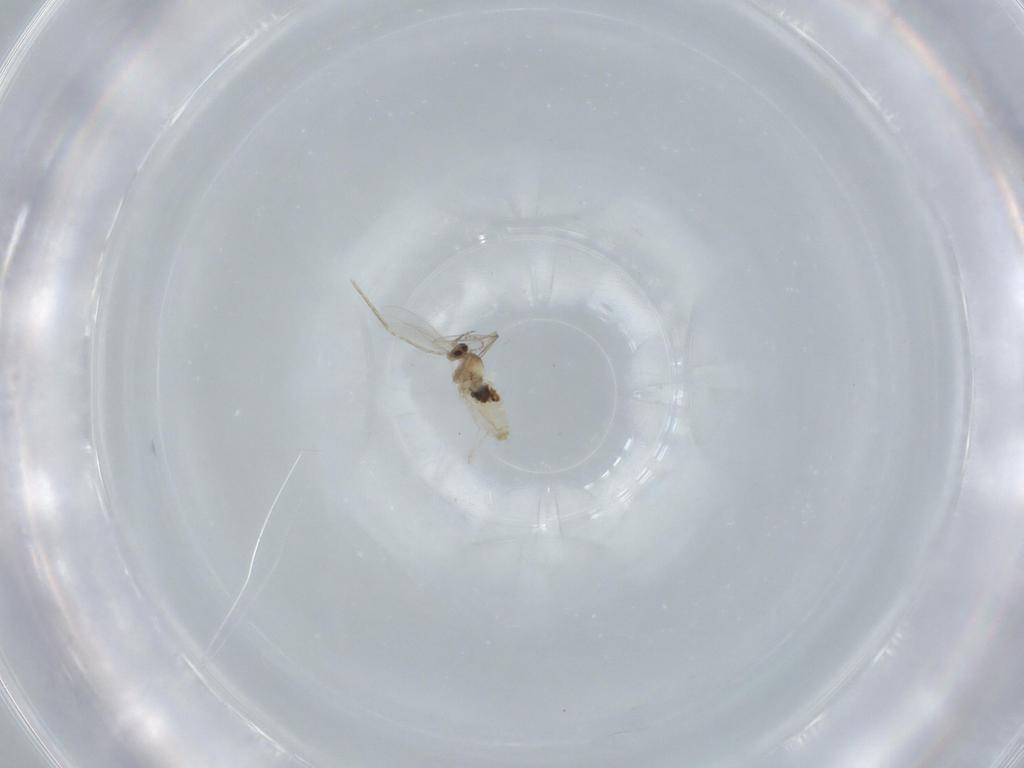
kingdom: Animalia
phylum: Arthropoda
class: Insecta
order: Diptera
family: Cecidomyiidae
